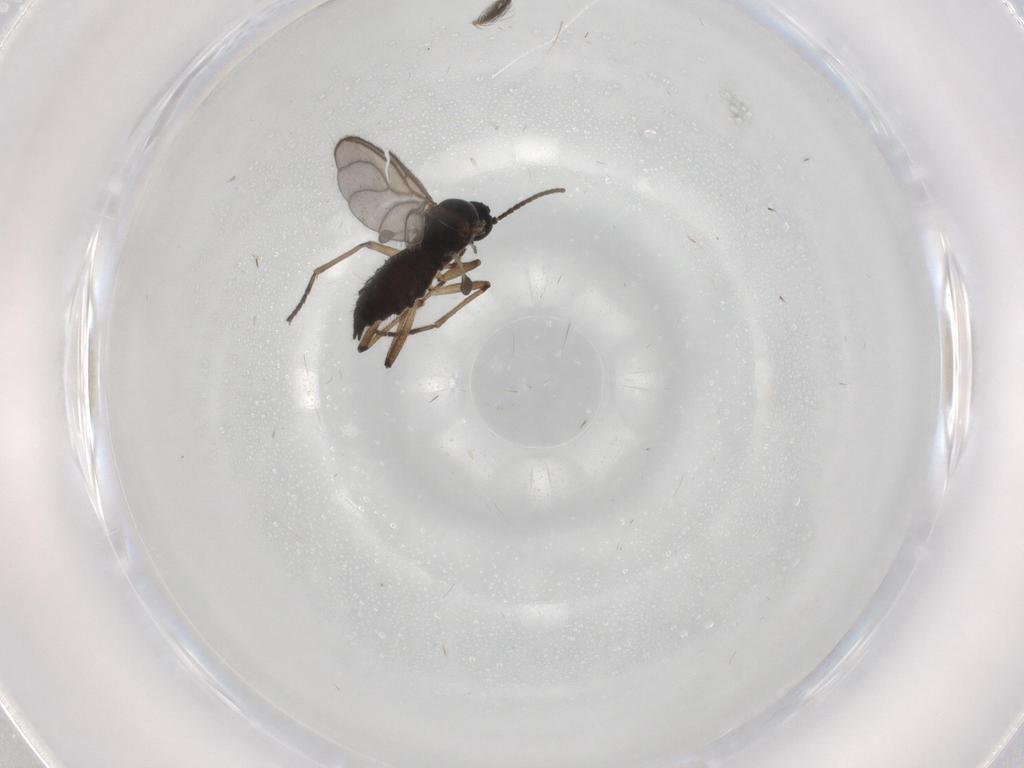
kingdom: Animalia
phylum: Arthropoda
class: Insecta
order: Diptera
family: Sciaridae
